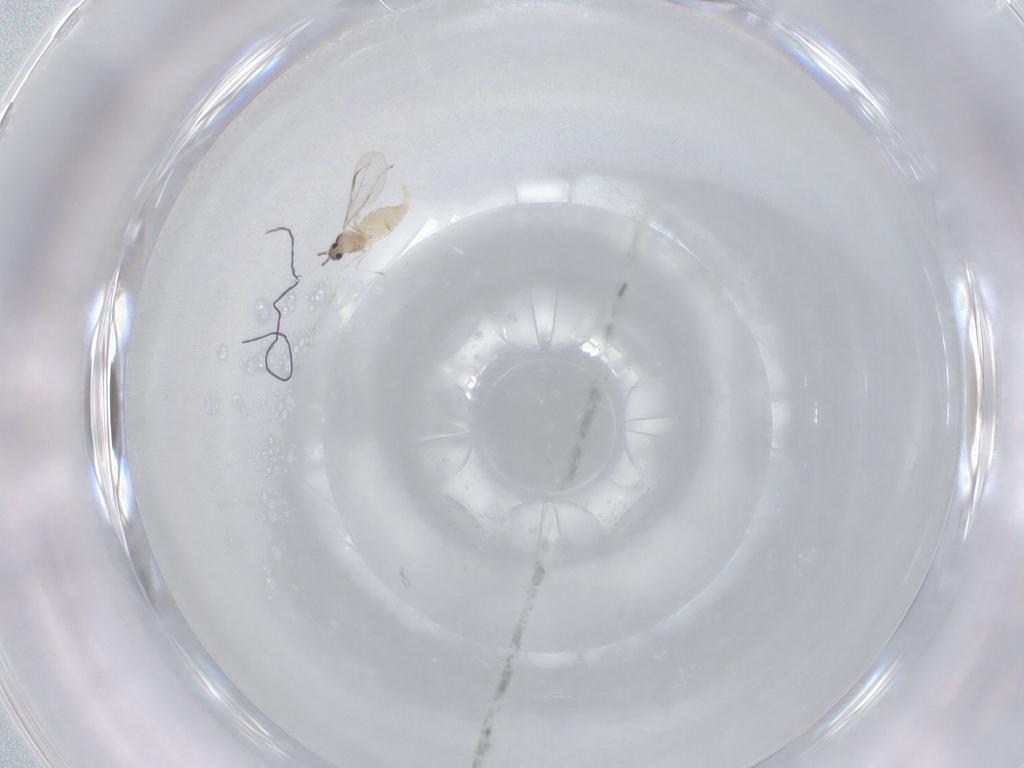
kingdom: Animalia
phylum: Arthropoda
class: Insecta
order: Diptera
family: Cecidomyiidae
